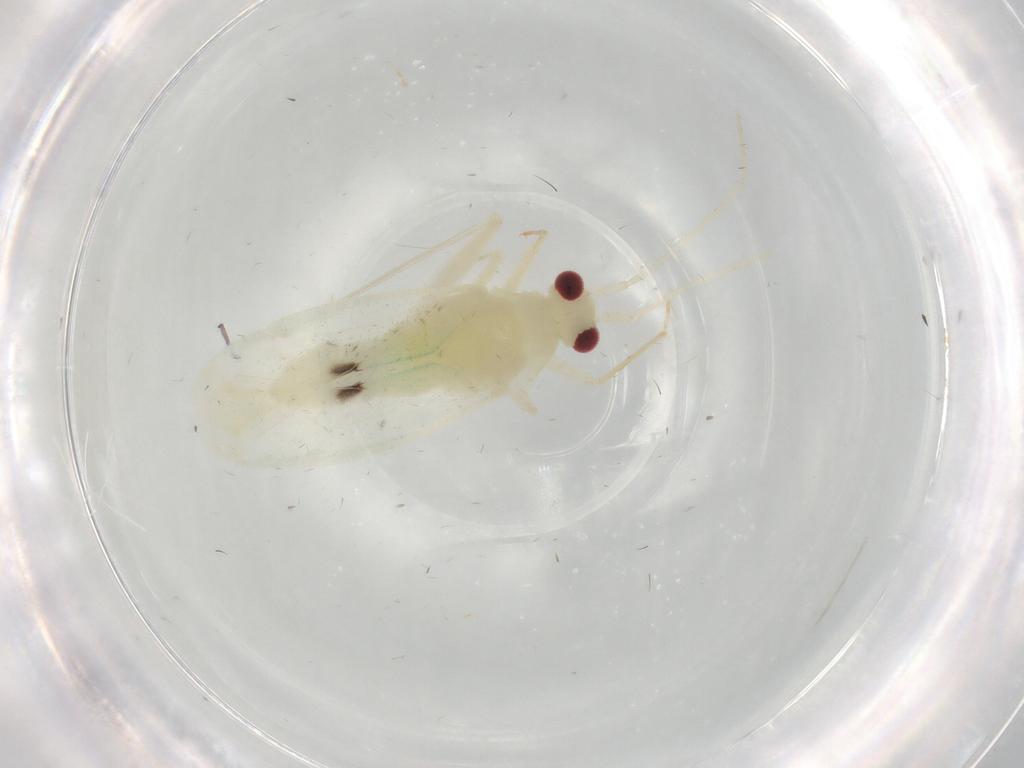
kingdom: Animalia
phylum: Arthropoda
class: Insecta
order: Hemiptera
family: Miridae
